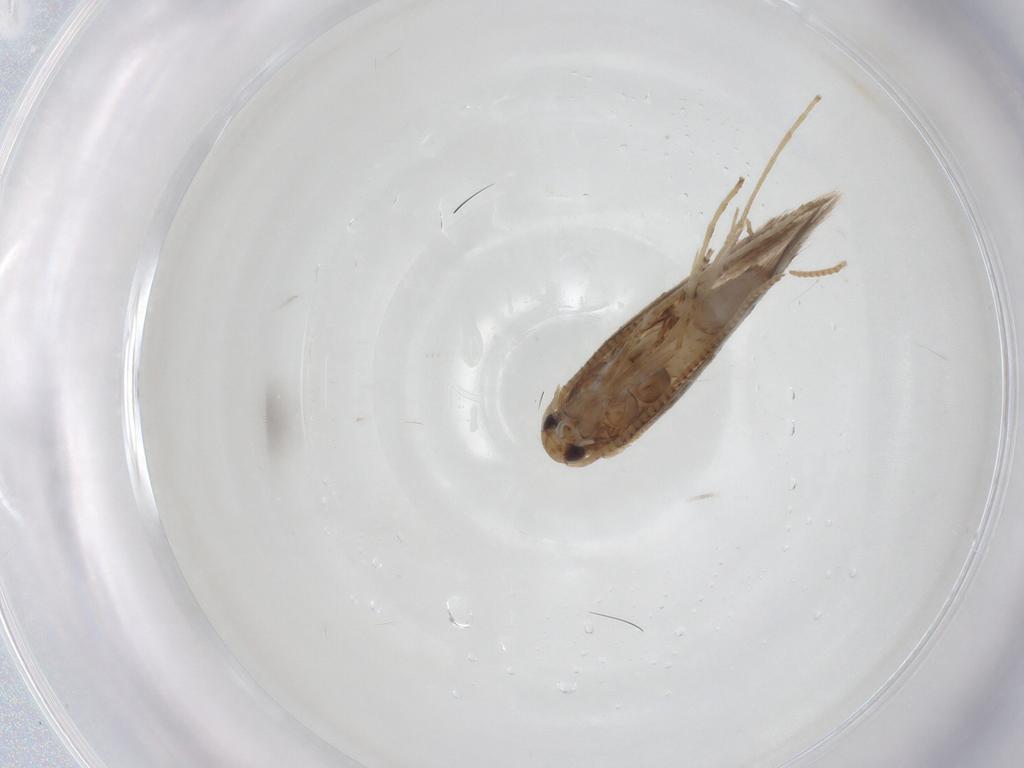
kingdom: Animalia
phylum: Arthropoda
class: Insecta
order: Lepidoptera
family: Gracillariidae
